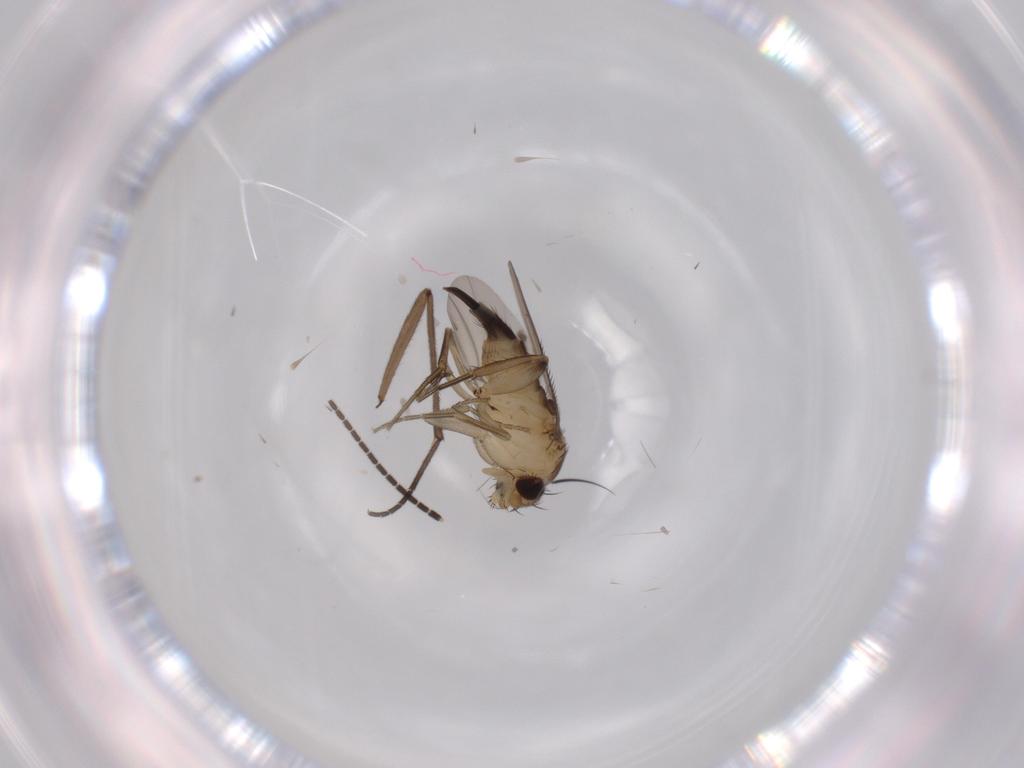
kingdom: Animalia
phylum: Arthropoda
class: Insecta
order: Diptera
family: Phoridae
